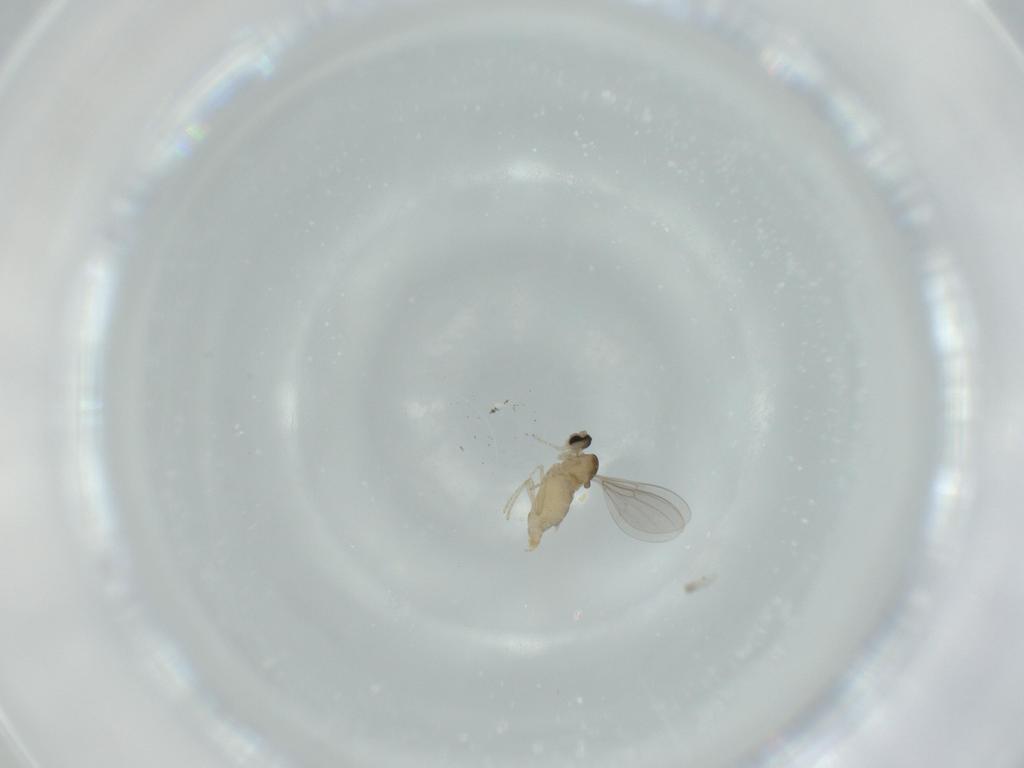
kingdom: Animalia
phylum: Arthropoda
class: Insecta
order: Diptera
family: Cecidomyiidae
